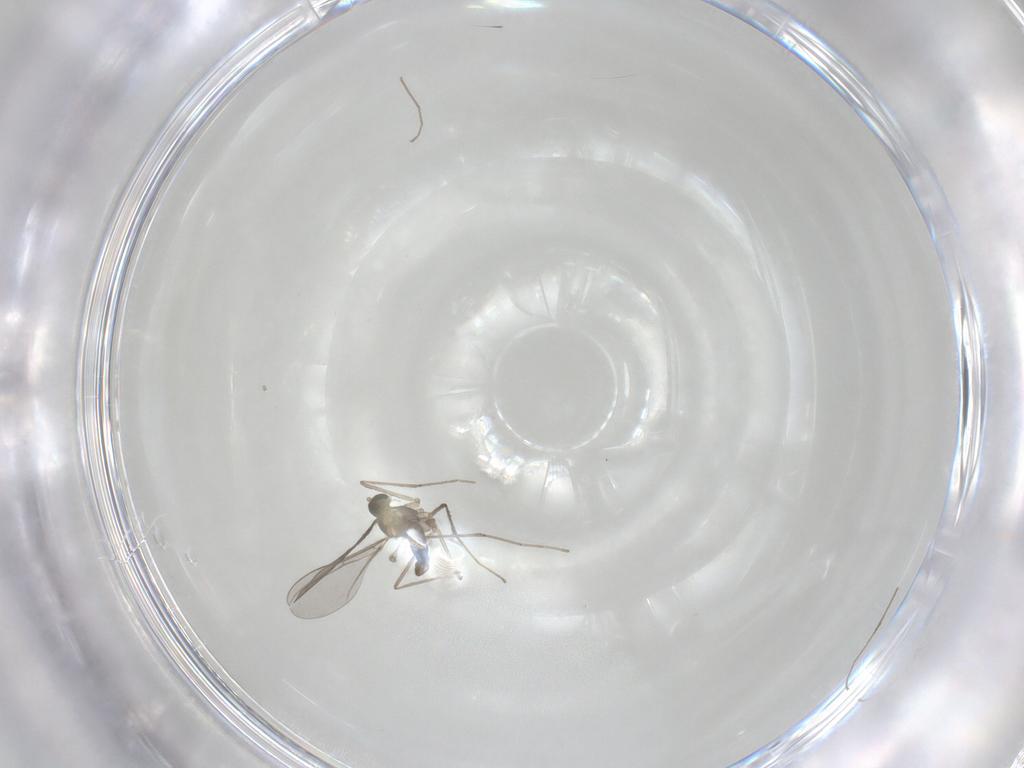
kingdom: Animalia
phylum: Arthropoda
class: Insecta
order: Diptera
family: Cecidomyiidae
